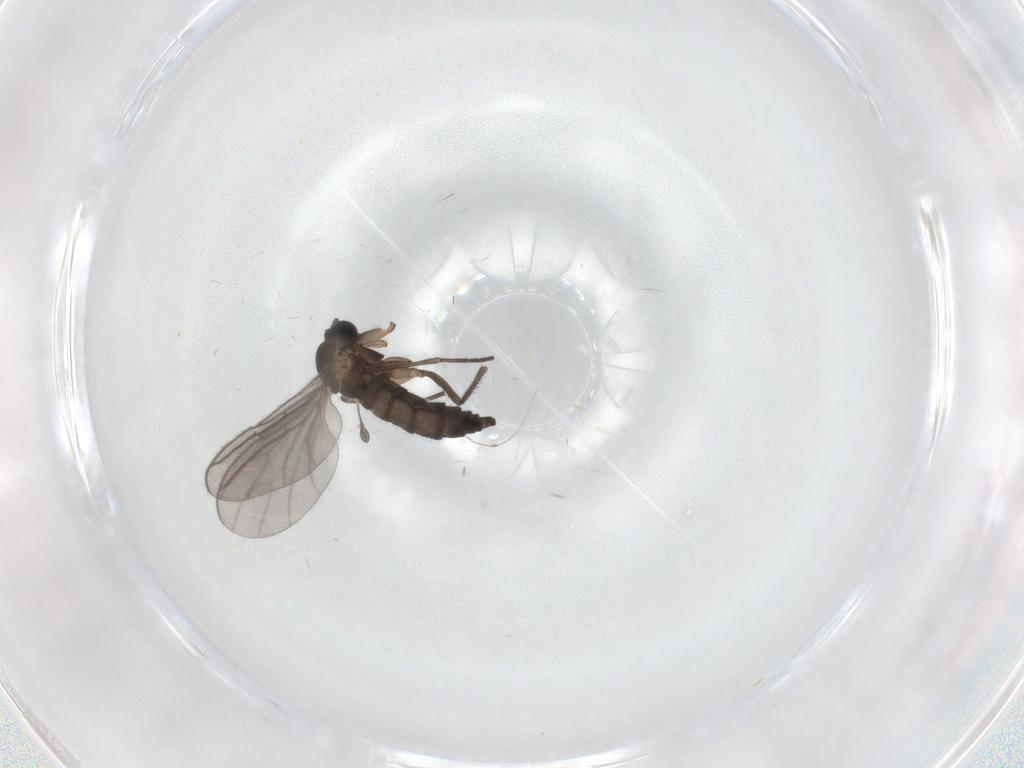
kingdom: Animalia
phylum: Arthropoda
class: Insecta
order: Diptera
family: Sciaridae
